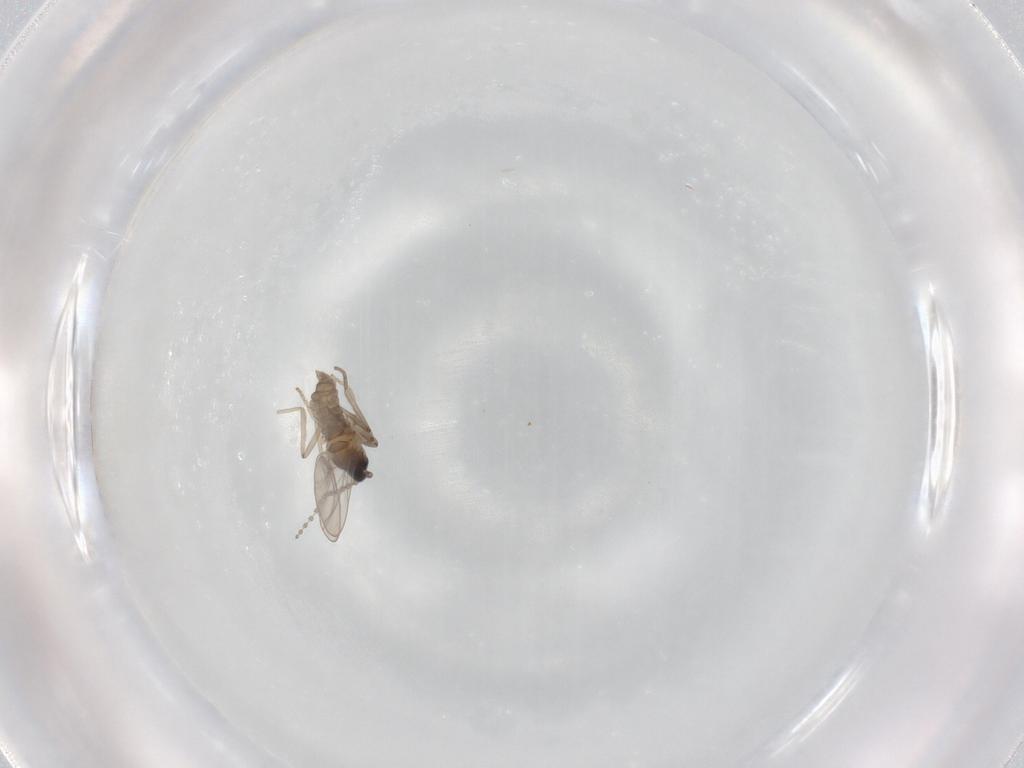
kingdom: Animalia
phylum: Arthropoda
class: Insecta
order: Diptera
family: Cecidomyiidae
